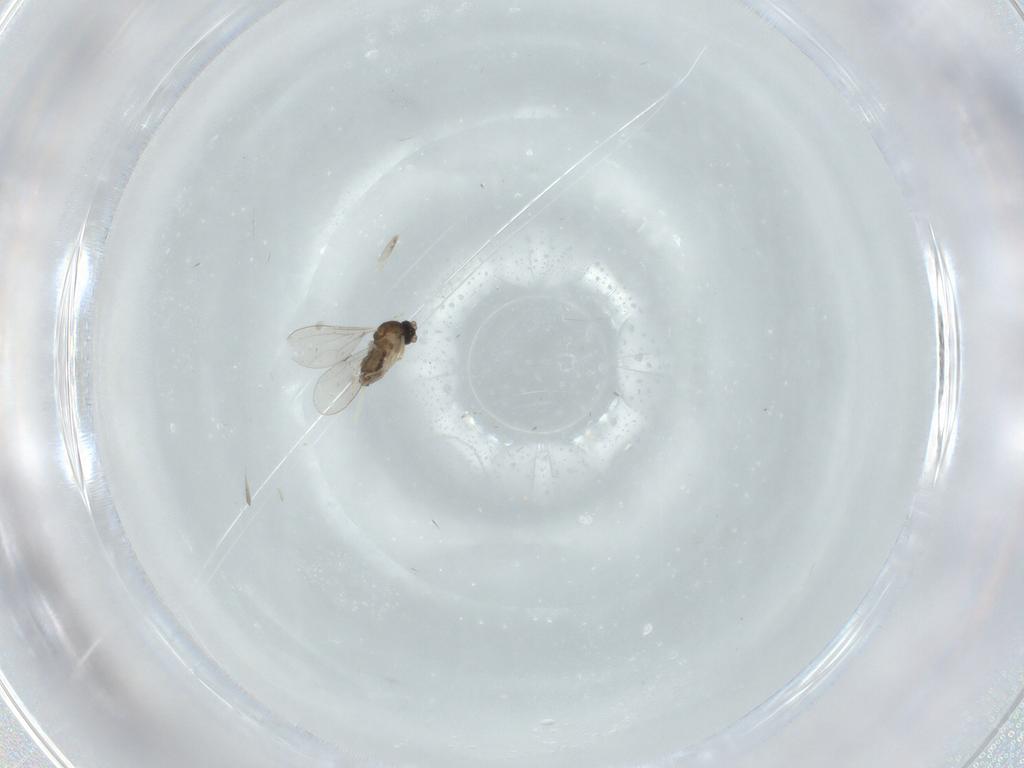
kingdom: Animalia
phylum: Arthropoda
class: Insecta
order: Diptera
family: Cecidomyiidae
